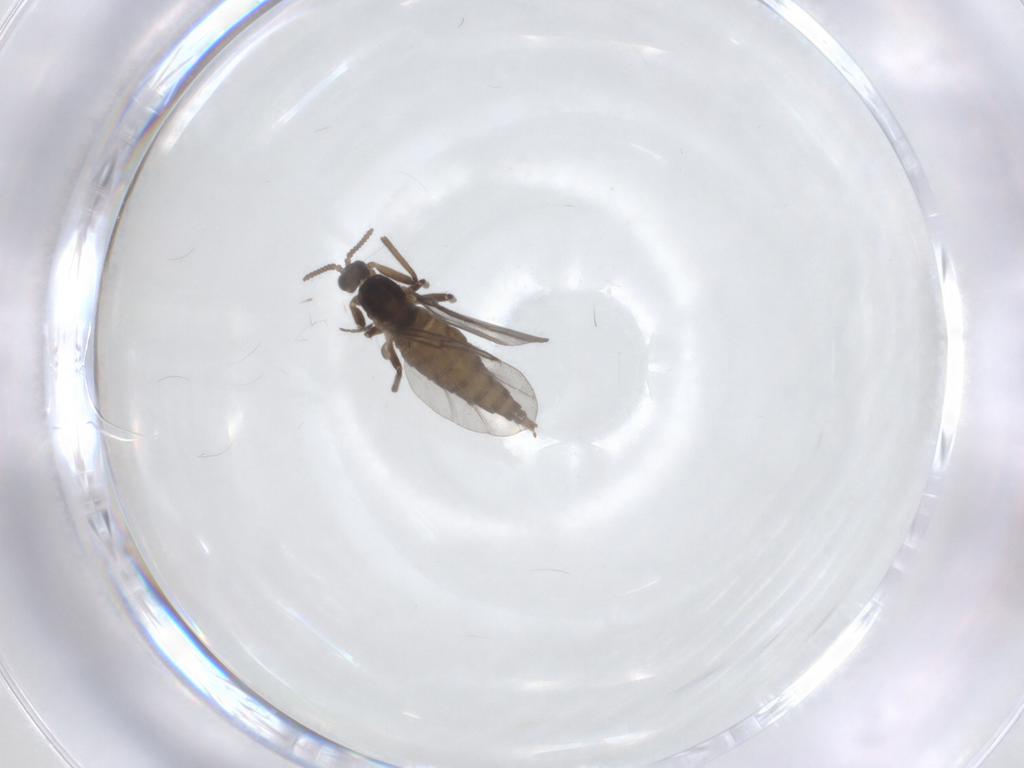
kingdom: Animalia
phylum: Arthropoda
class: Insecta
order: Diptera
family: Cecidomyiidae
